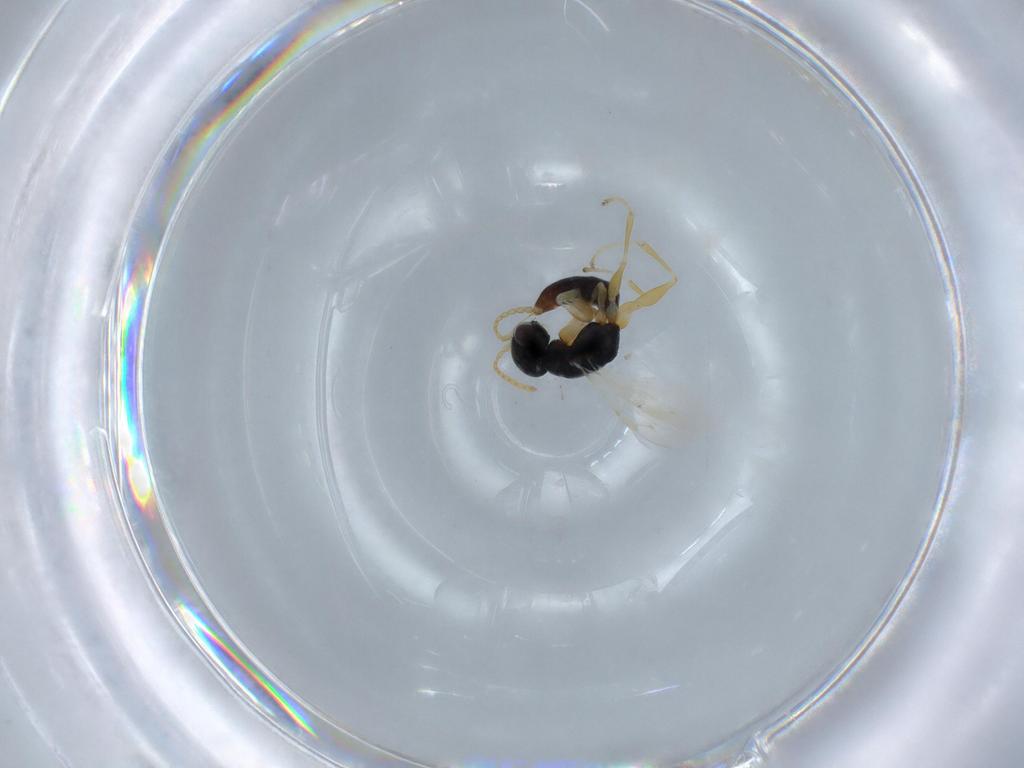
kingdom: Animalia
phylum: Arthropoda
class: Insecta
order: Hymenoptera
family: Dryinidae
